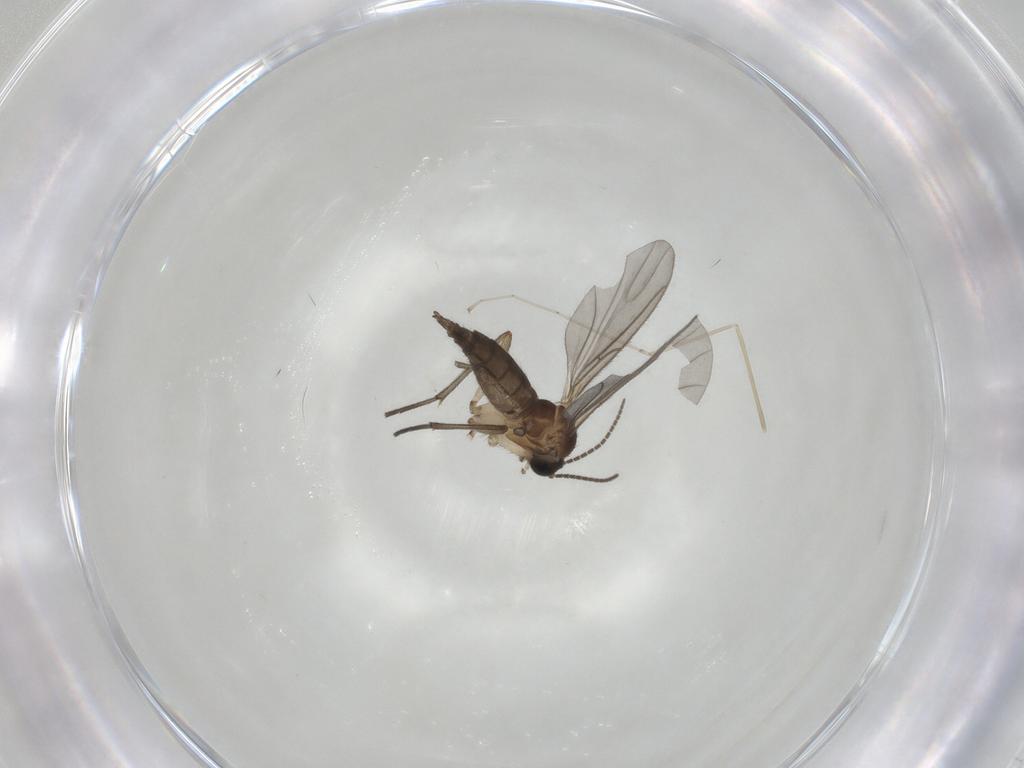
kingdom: Animalia
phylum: Arthropoda
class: Insecta
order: Diptera
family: Cecidomyiidae
